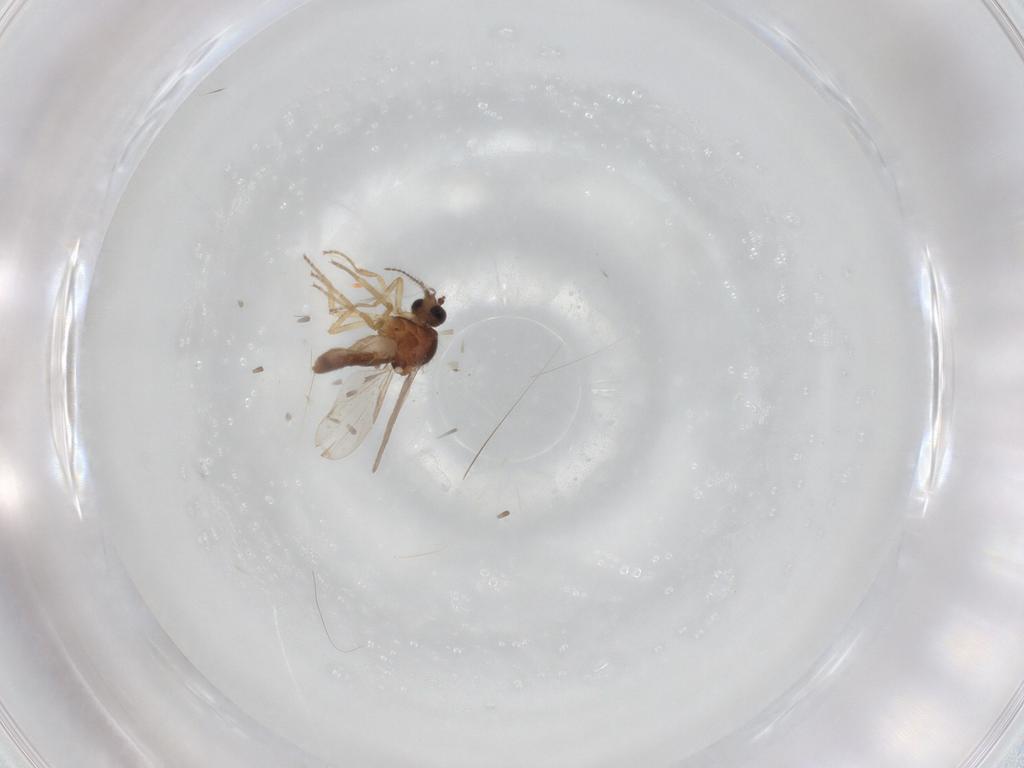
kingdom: Animalia
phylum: Arthropoda
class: Insecta
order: Diptera
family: Ceratopogonidae
